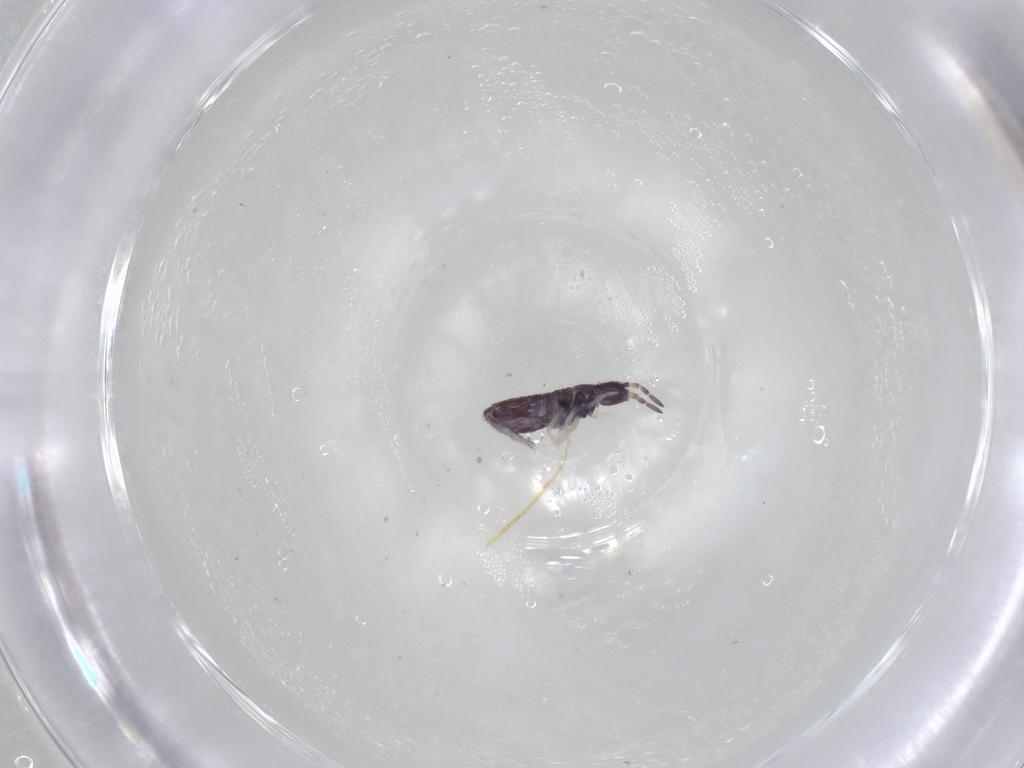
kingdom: Animalia
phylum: Arthropoda
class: Collembola
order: Entomobryomorpha
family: Entomobryidae
